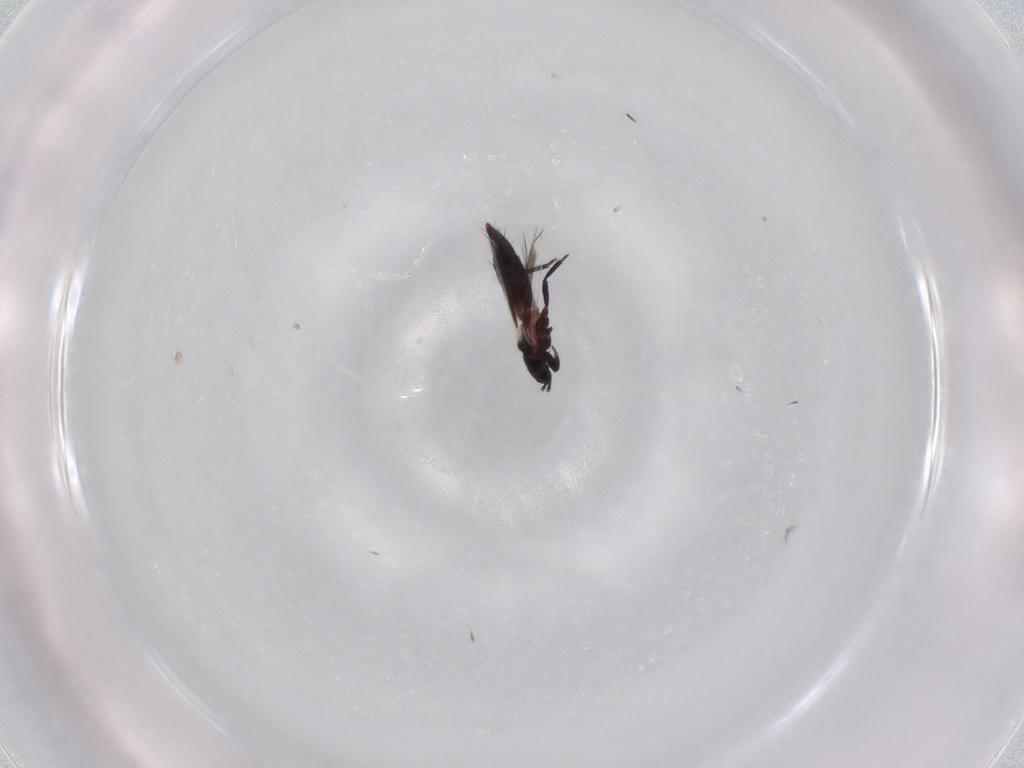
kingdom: Animalia
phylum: Arthropoda
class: Insecta
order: Thysanoptera
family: Aeolothripidae
